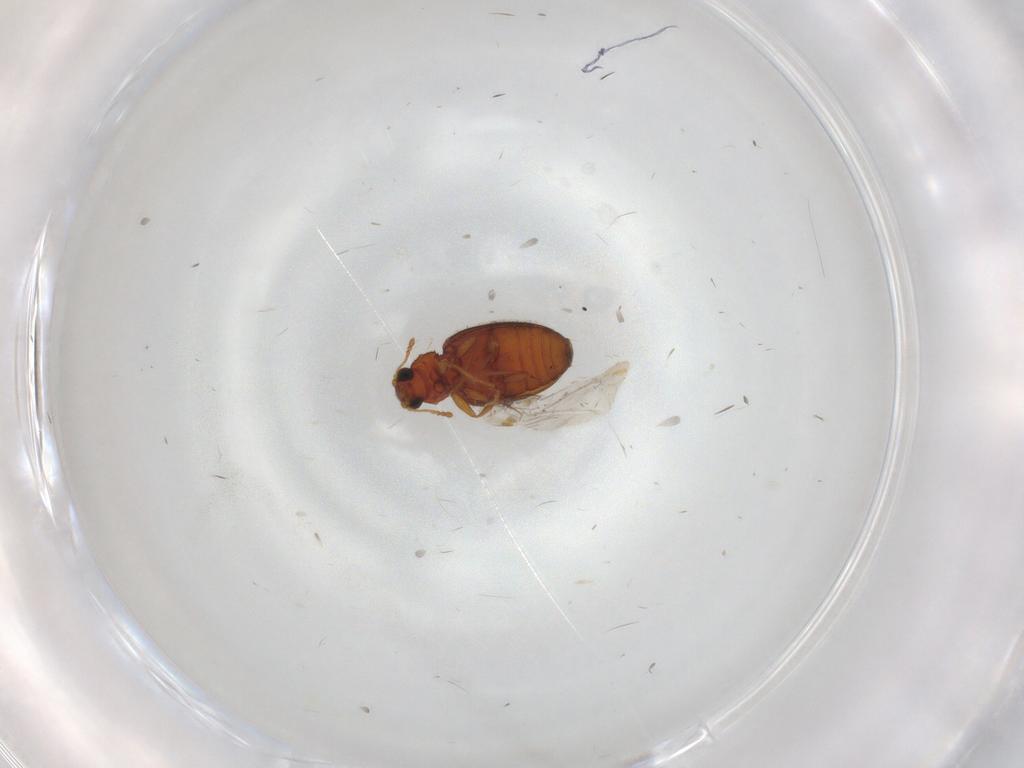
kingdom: Animalia
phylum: Arthropoda
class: Insecta
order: Coleoptera
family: Latridiidae
